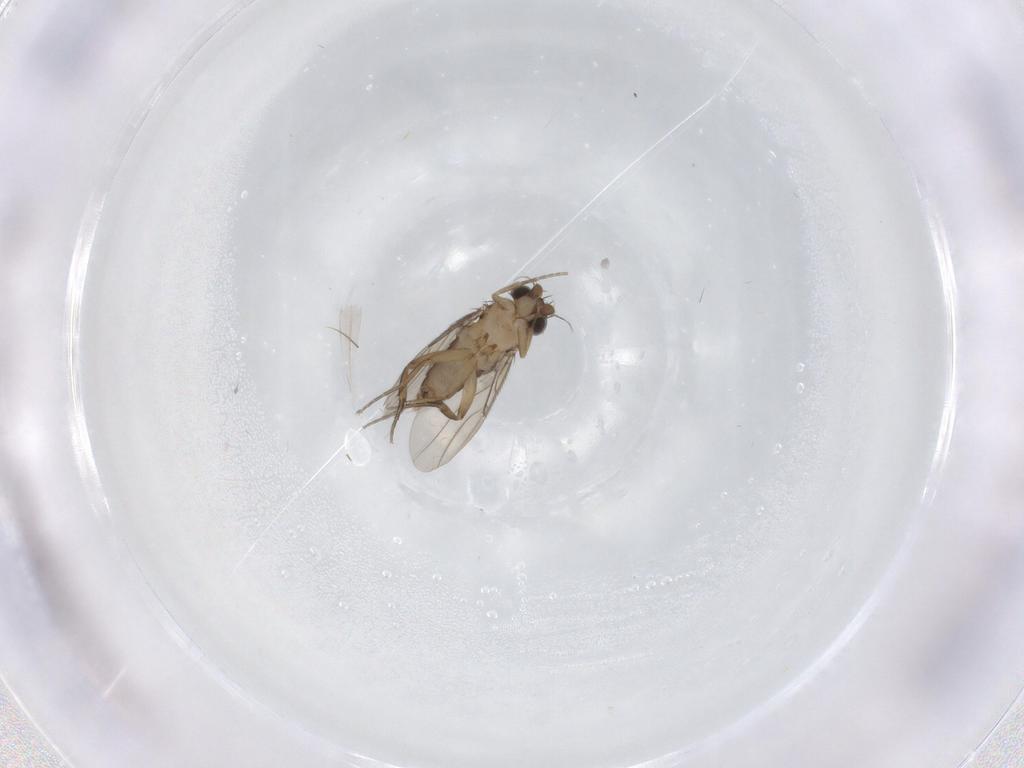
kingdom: Animalia
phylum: Arthropoda
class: Insecta
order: Diptera
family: Phoridae
